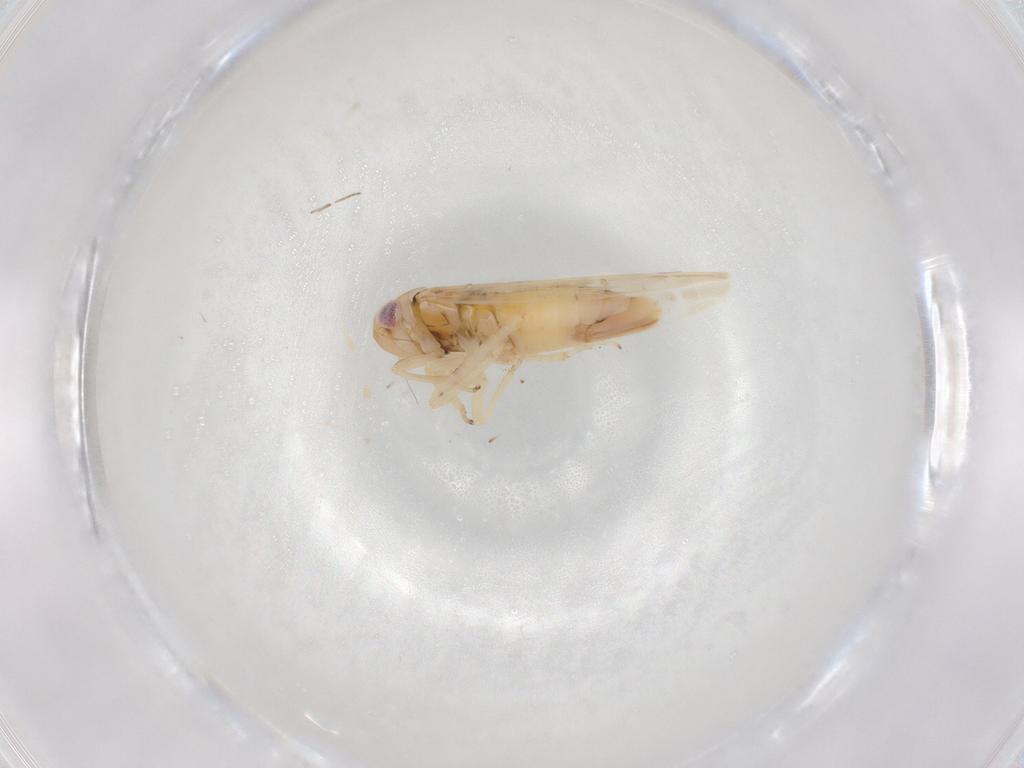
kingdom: Animalia
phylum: Arthropoda
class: Insecta
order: Hemiptera
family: Cicadellidae
